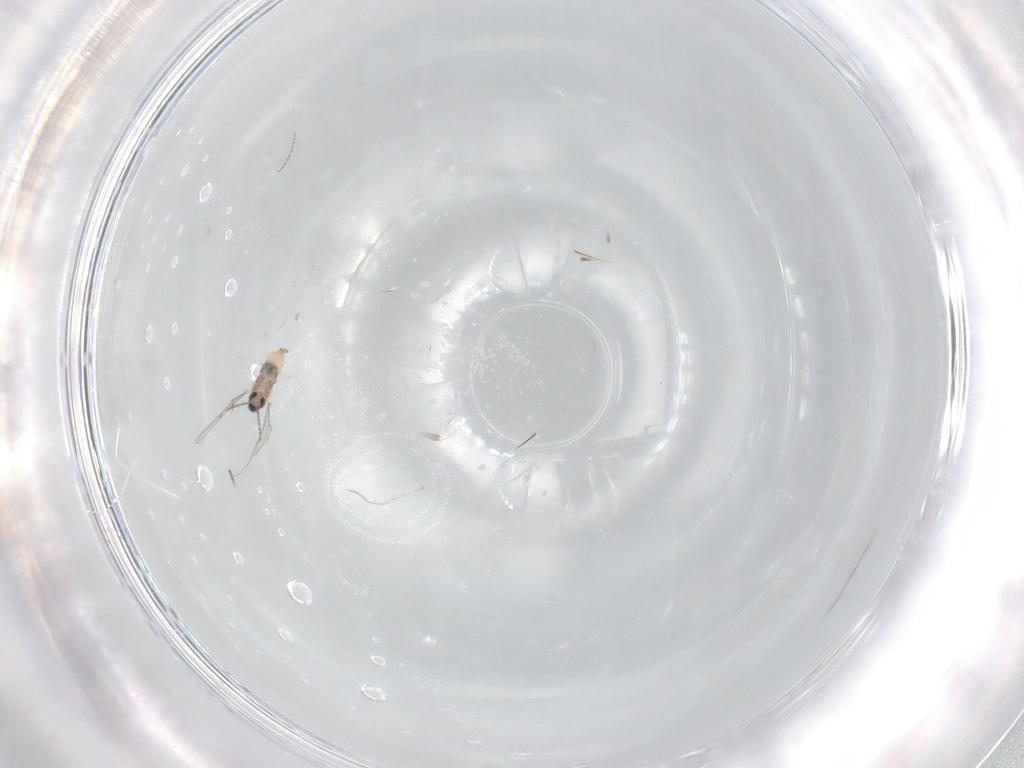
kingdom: Animalia
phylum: Arthropoda
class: Insecta
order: Diptera
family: Cecidomyiidae
